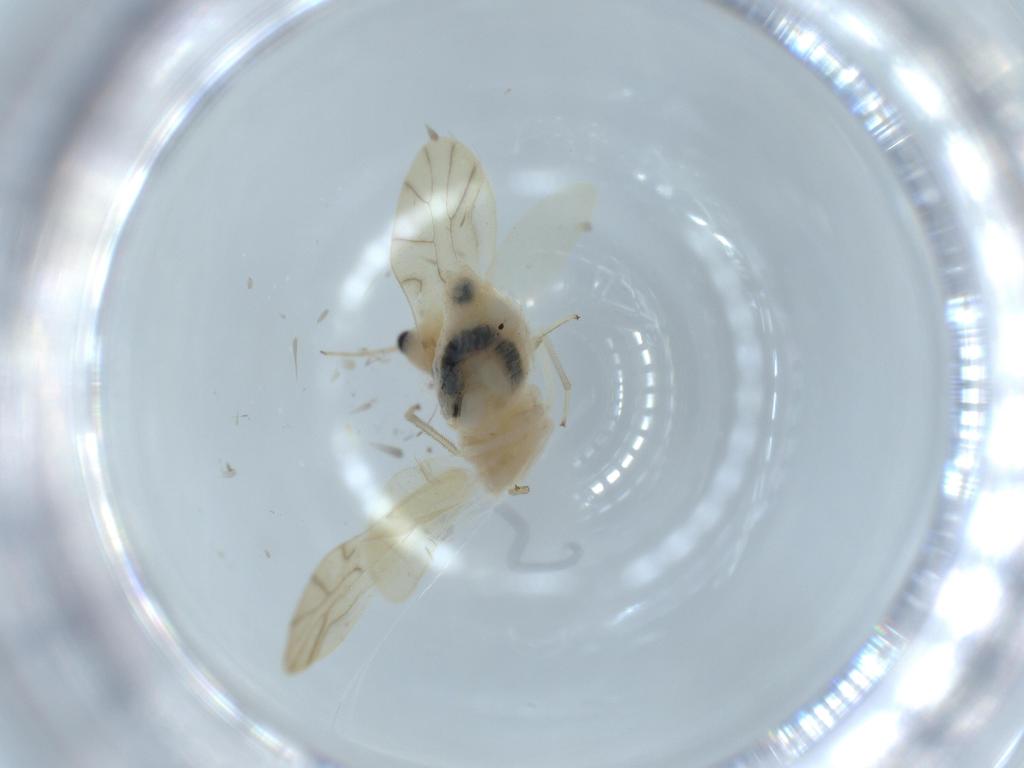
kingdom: Animalia
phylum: Arthropoda
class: Insecta
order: Psocodea
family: Caeciliusidae
